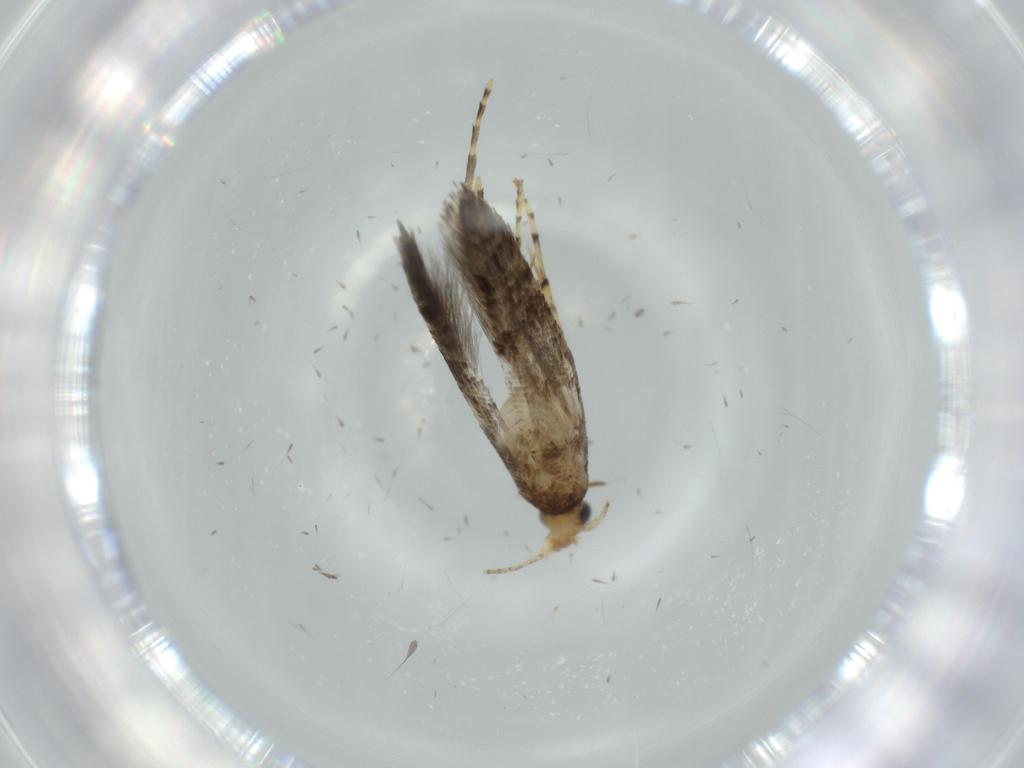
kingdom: Animalia
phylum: Arthropoda
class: Insecta
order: Lepidoptera
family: Argyresthiidae
